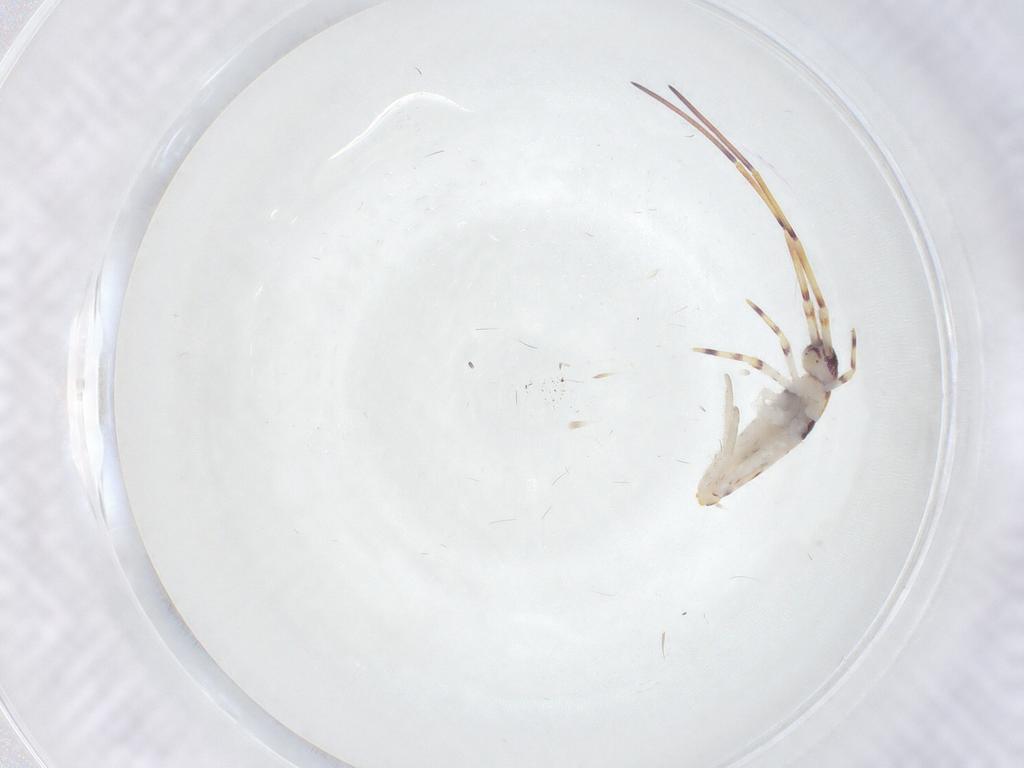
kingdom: Animalia
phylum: Arthropoda
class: Collembola
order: Entomobryomorpha
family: Entomobryidae
